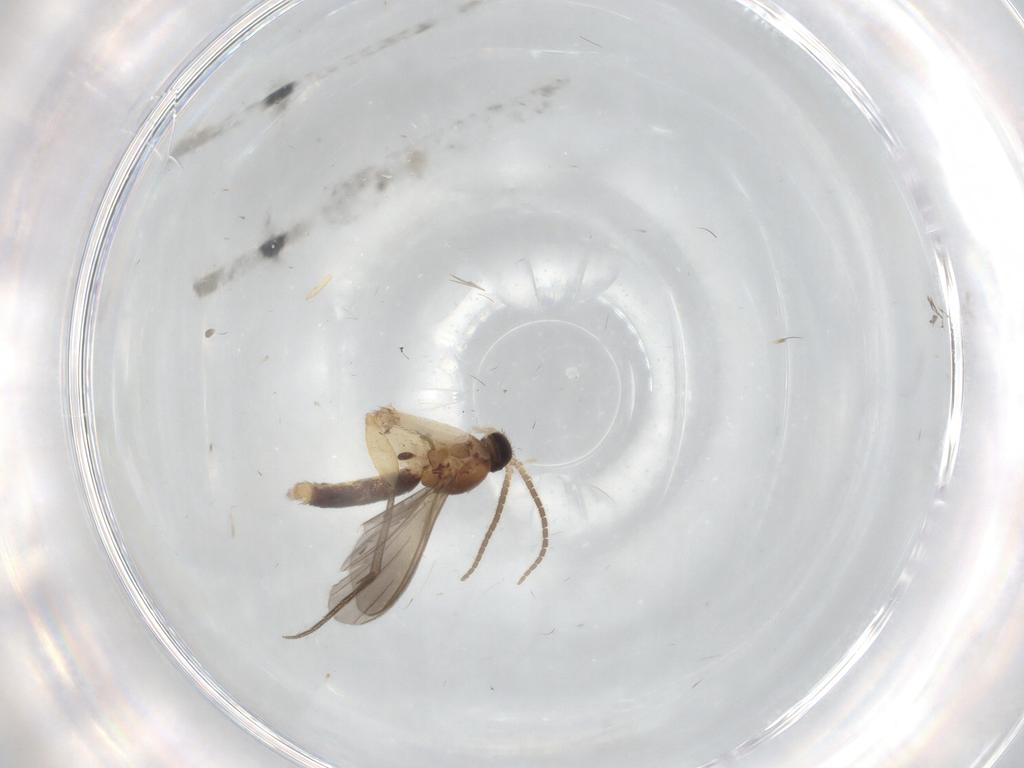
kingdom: Animalia
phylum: Arthropoda
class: Insecta
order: Diptera
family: Mycetophilidae
